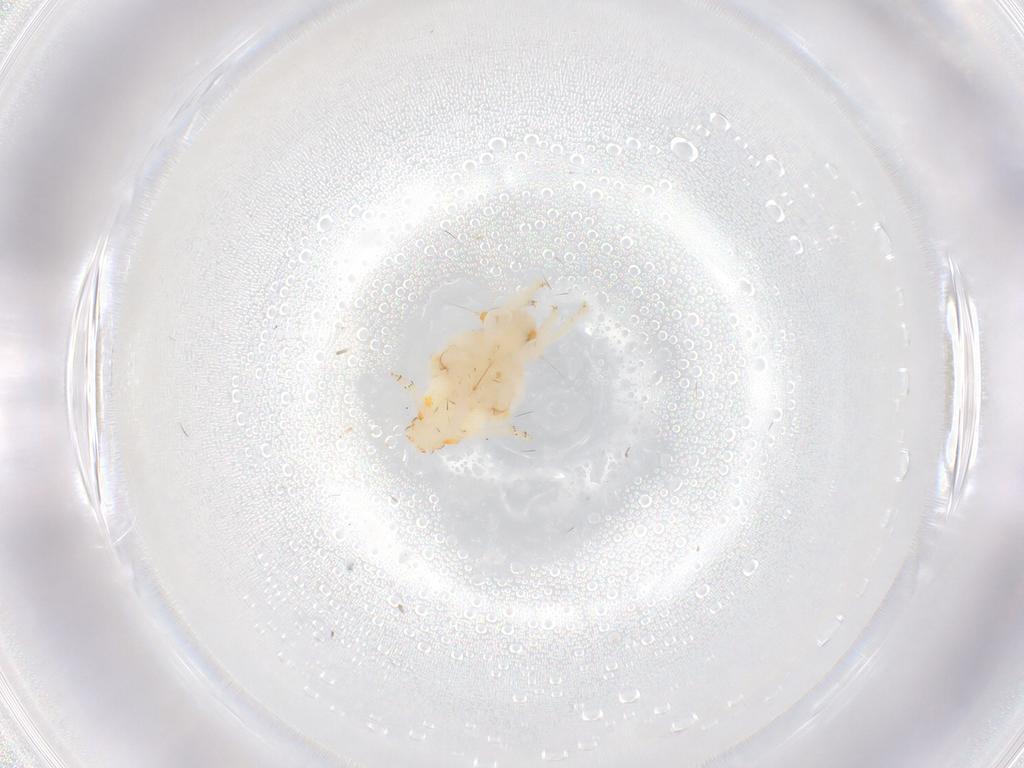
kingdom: Animalia
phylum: Arthropoda
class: Insecta
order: Hemiptera
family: Nogodinidae
